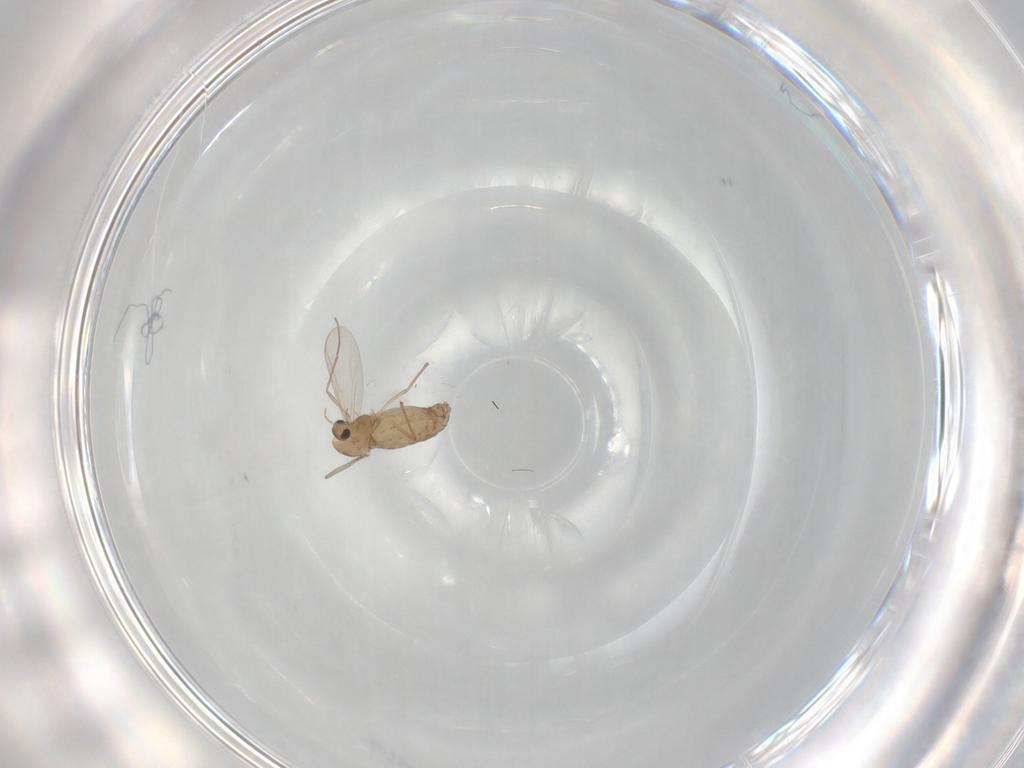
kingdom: Animalia
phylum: Arthropoda
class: Insecta
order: Diptera
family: Chironomidae
